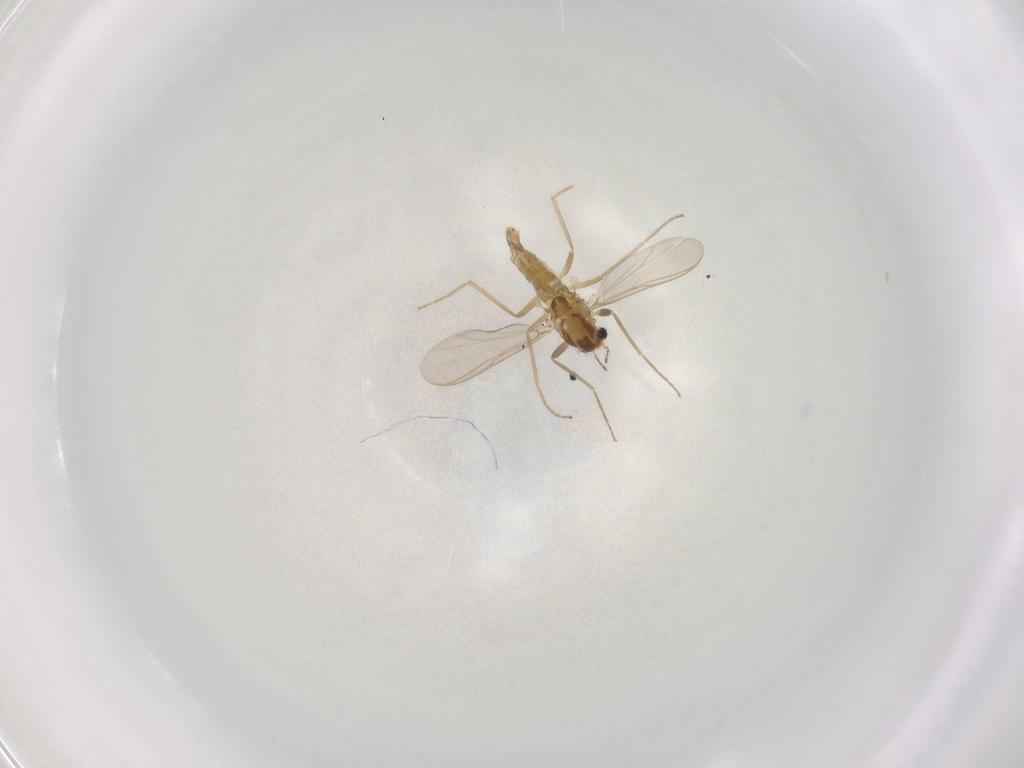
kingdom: Animalia
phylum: Arthropoda
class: Insecta
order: Diptera
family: Chironomidae
